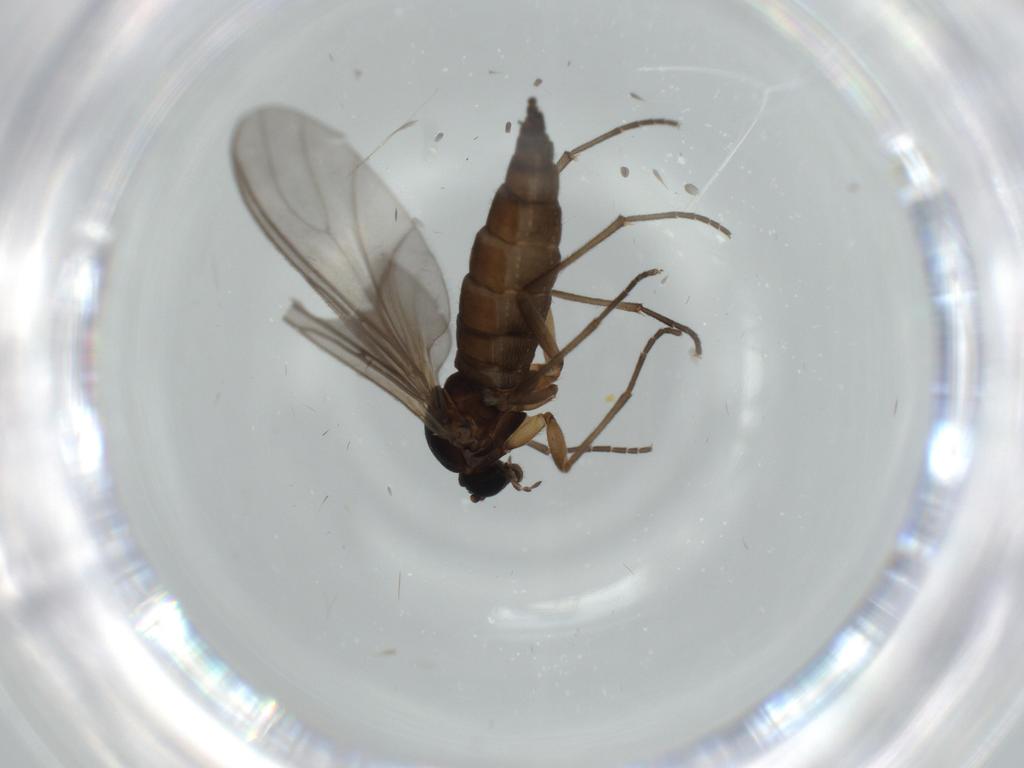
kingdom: Animalia
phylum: Arthropoda
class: Insecta
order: Diptera
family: Sciaridae
